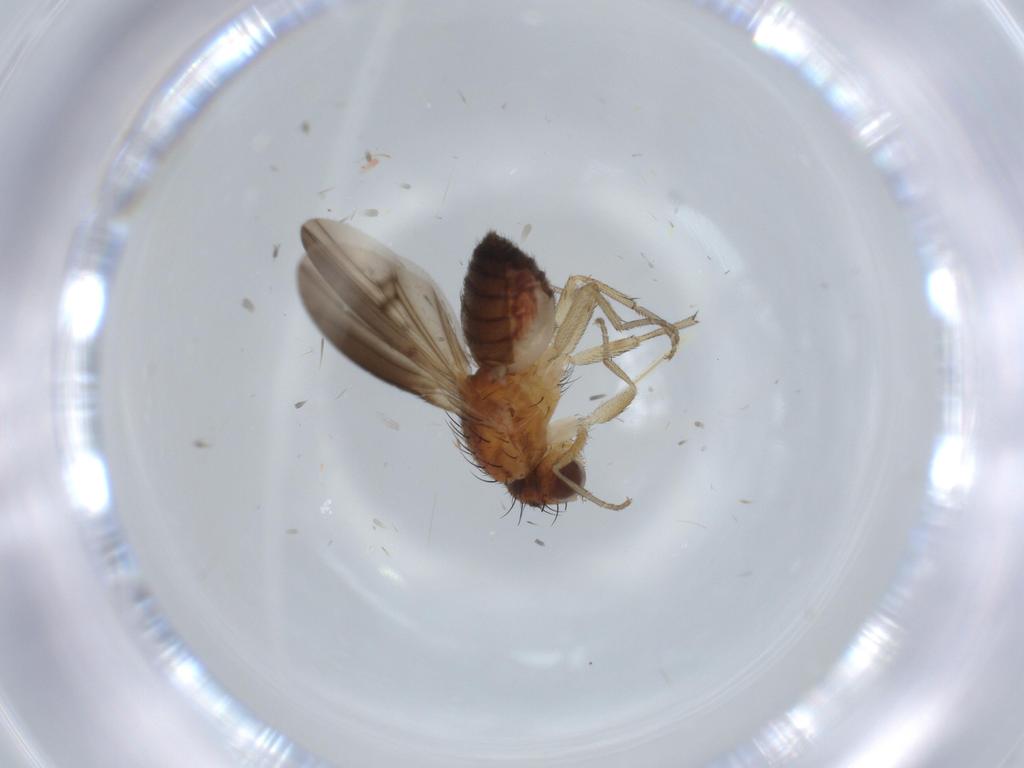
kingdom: Animalia
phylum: Arthropoda
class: Insecta
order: Diptera
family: Heleomyzidae
